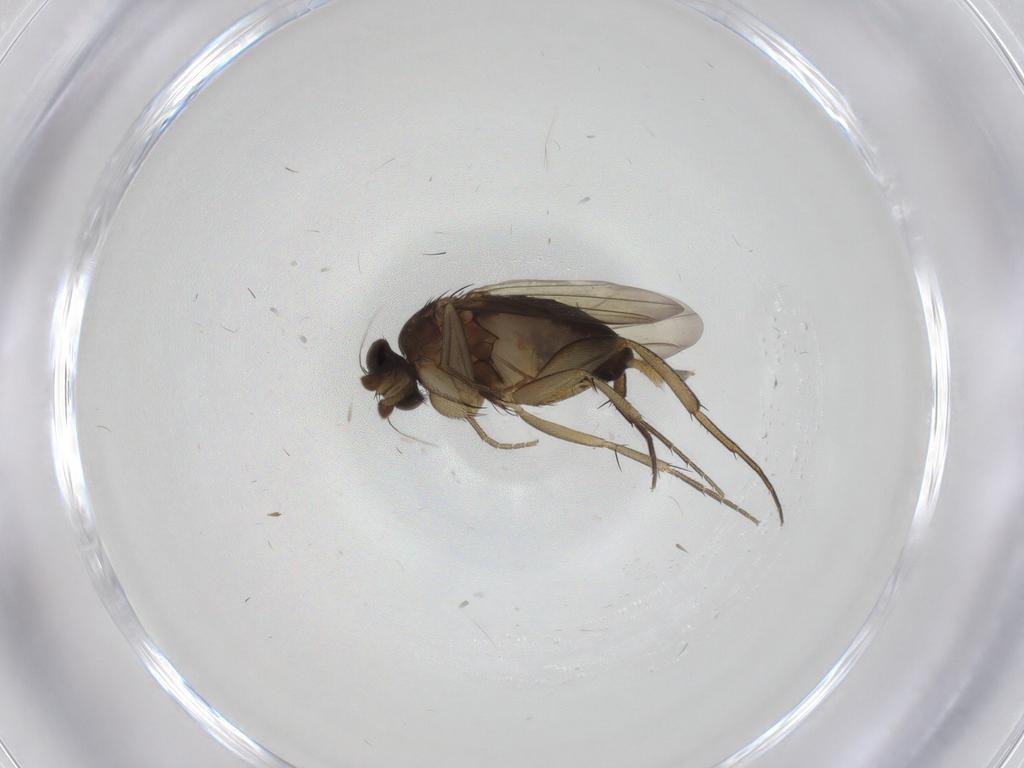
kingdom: Animalia
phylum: Arthropoda
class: Insecta
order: Diptera
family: Phoridae
